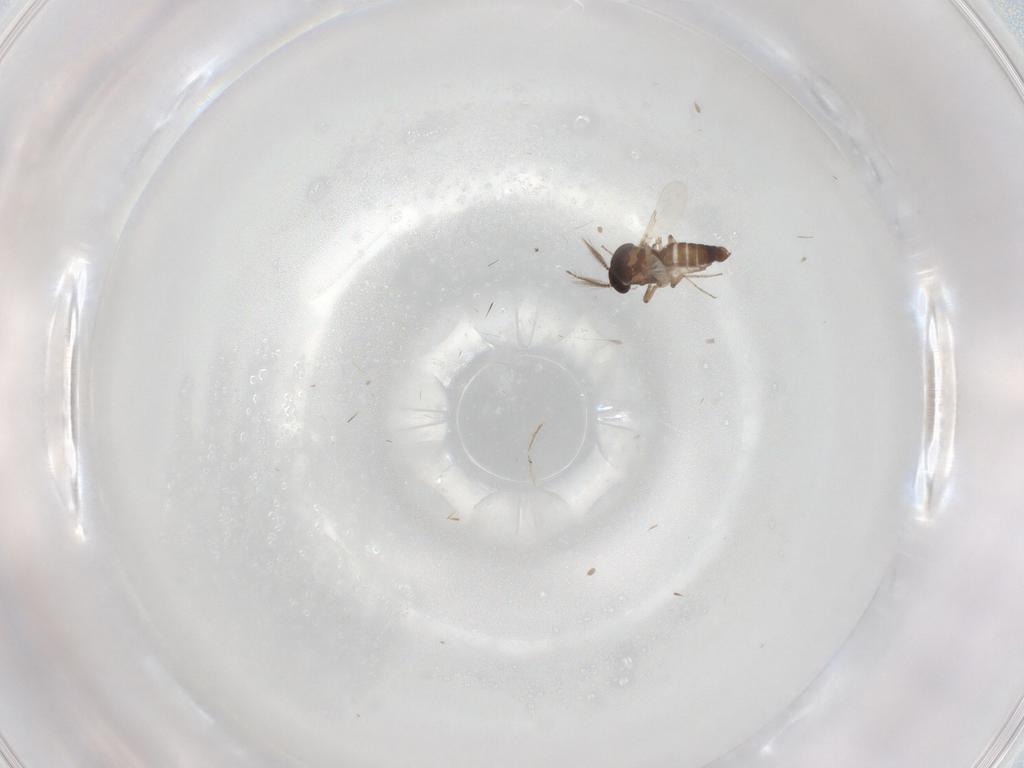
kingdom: Animalia
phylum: Arthropoda
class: Insecta
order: Diptera
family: Ceratopogonidae
